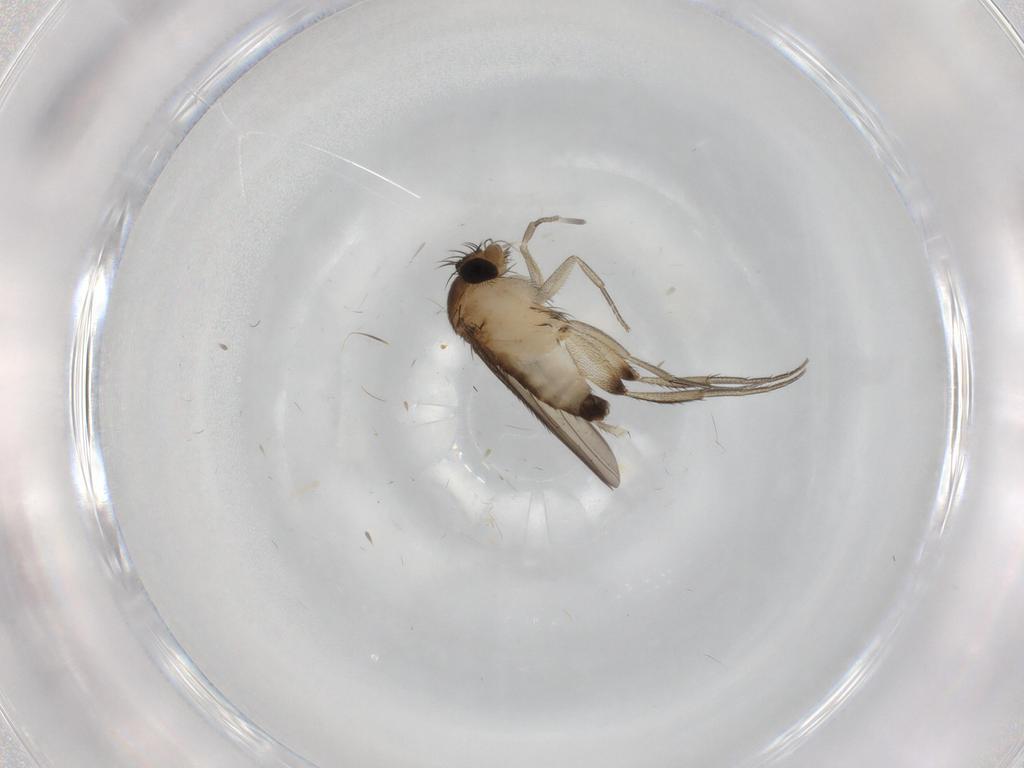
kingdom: Animalia
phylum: Arthropoda
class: Insecta
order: Diptera
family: Phoridae
